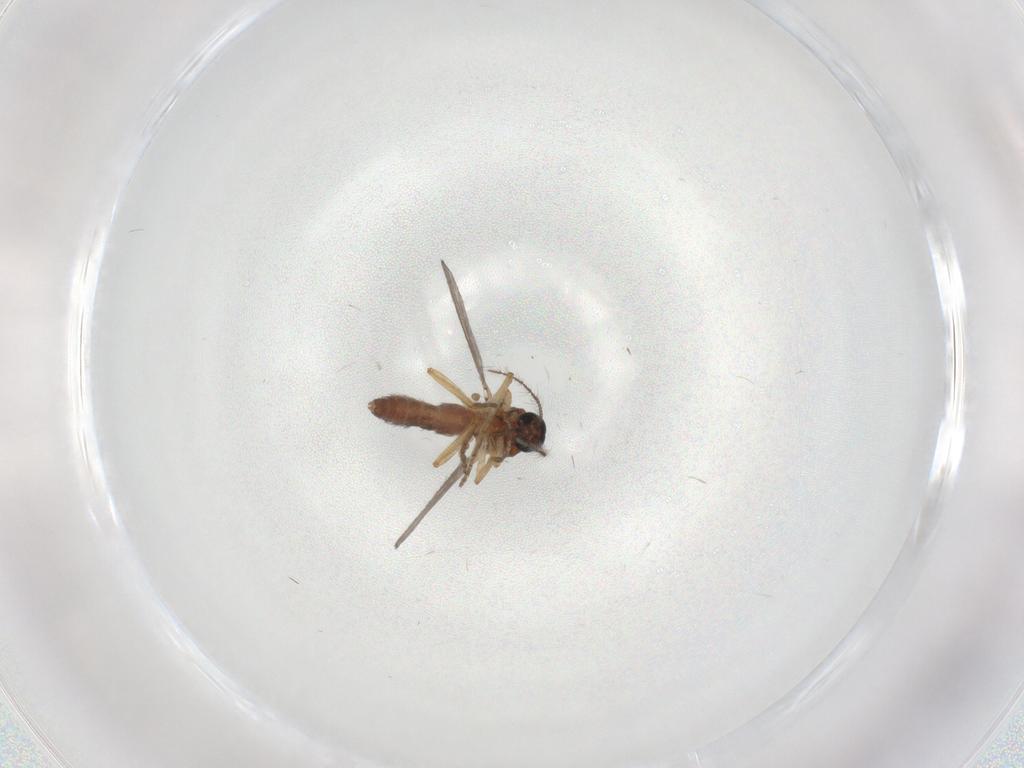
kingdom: Animalia
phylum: Arthropoda
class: Insecta
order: Diptera
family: Ceratopogonidae
